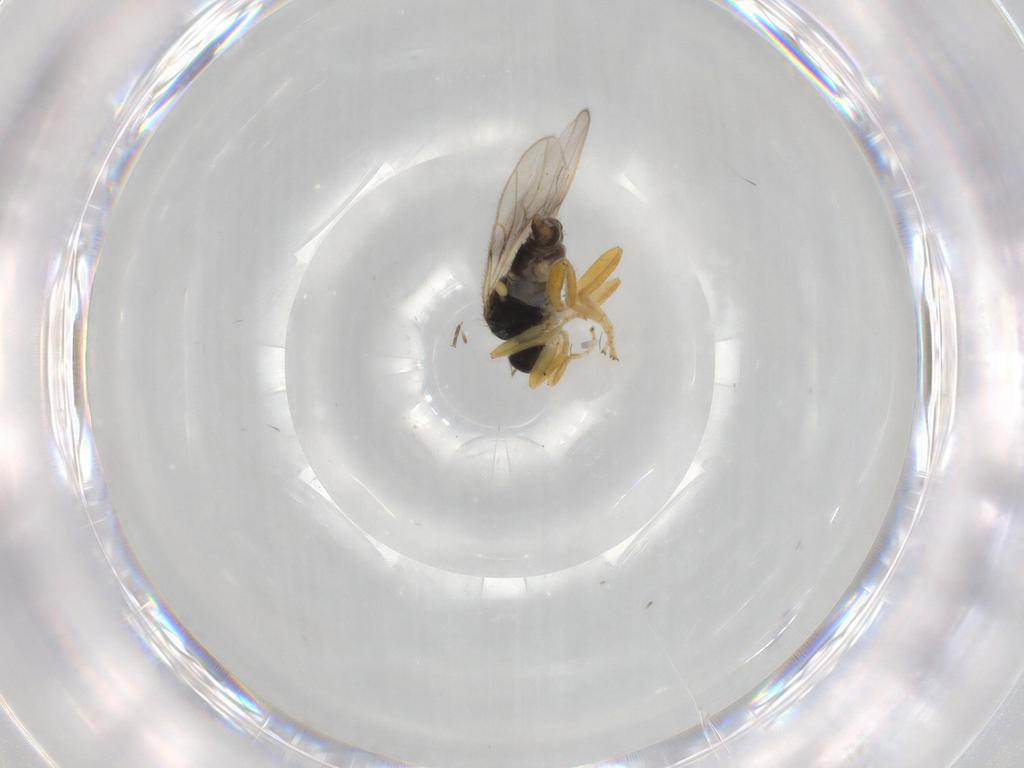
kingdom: Animalia
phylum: Arthropoda
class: Insecta
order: Diptera
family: Hybotidae
